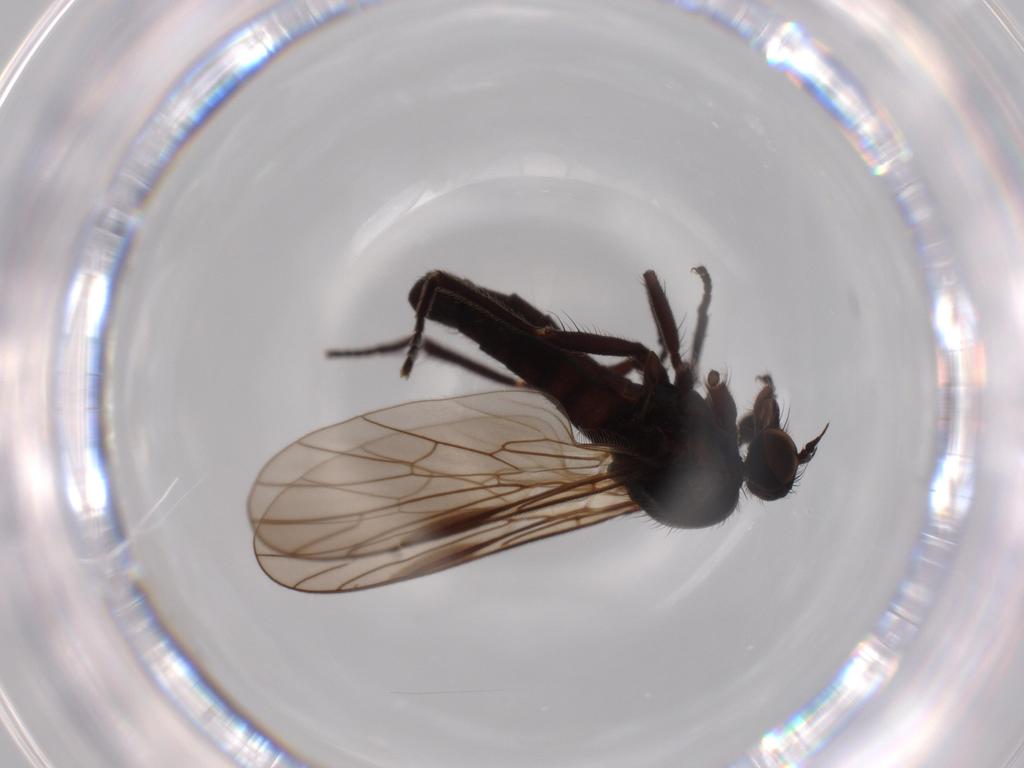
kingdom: Animalia
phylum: Arthropoda
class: Insecta
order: Diptera
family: Empididae
